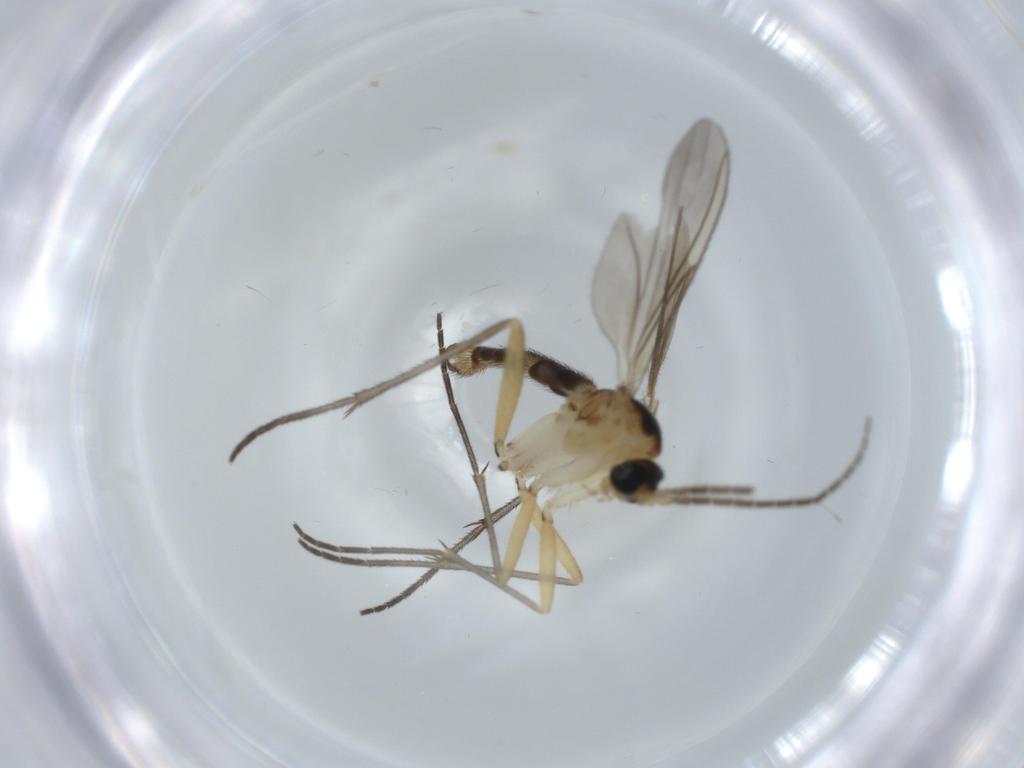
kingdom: Animalia
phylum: Arthropoda
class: Insecta
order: Diptera
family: Sciaridae
